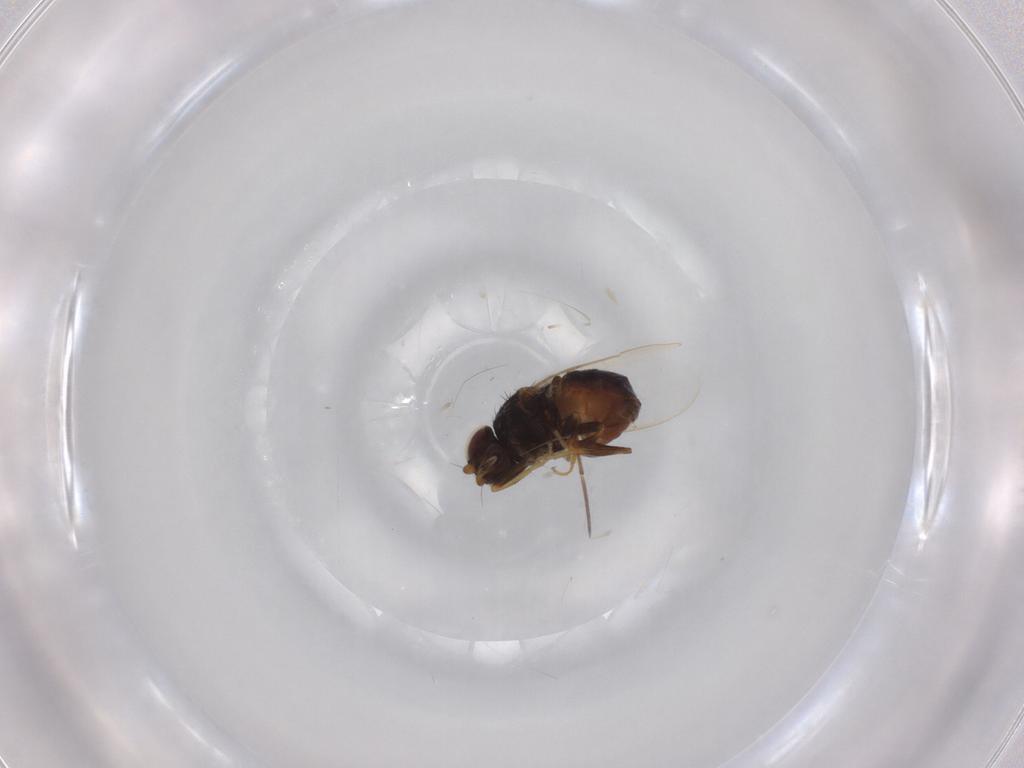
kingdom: Animalia
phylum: Arthropoda
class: Insecta
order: Diptera
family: Chloropidae
